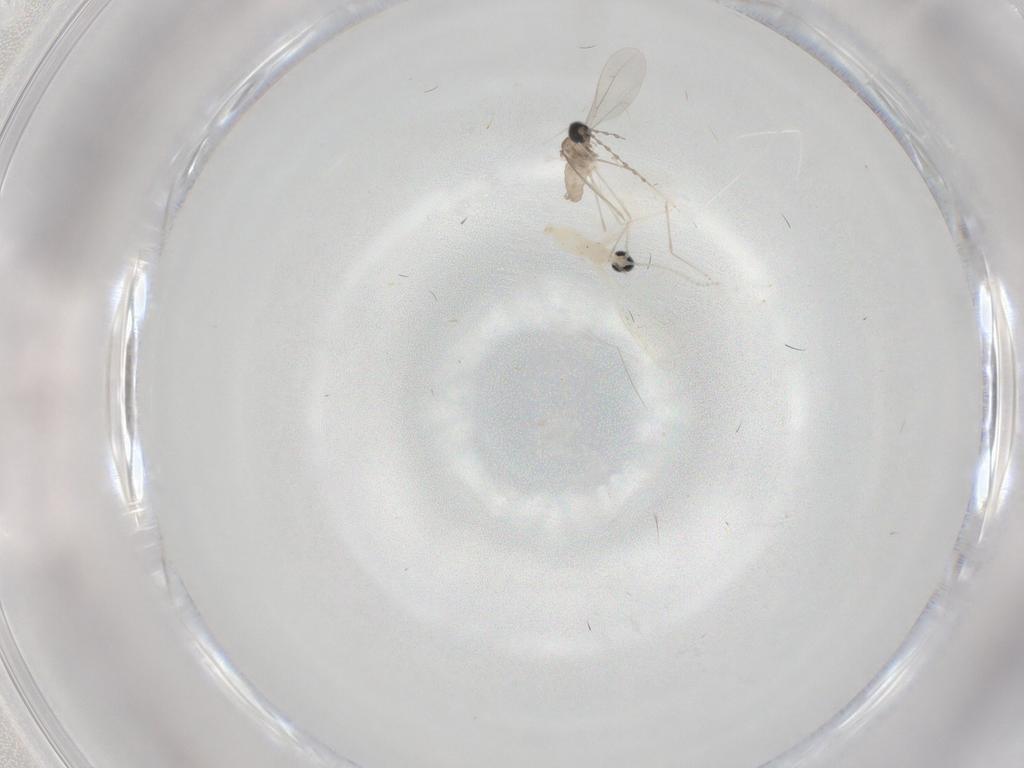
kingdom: Animalia
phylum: Arthropoda
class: Insecta
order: Diptera
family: Cecidomyiidae
